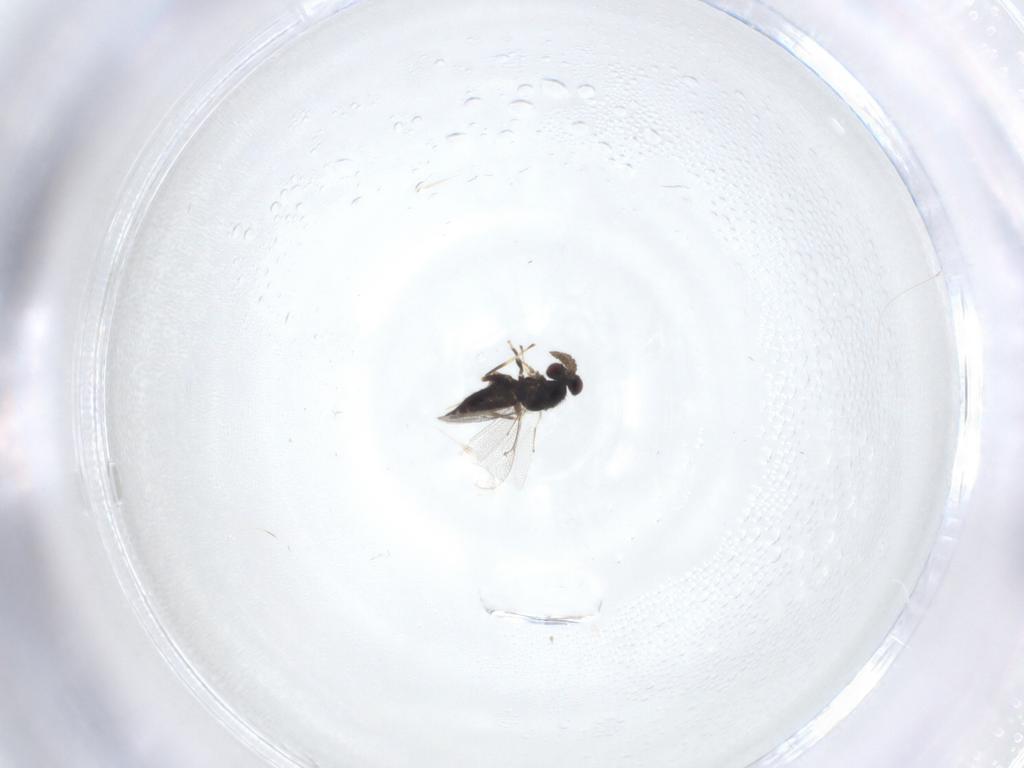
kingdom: Animalia
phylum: Arthropoda
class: Insecta
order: Hymenoptera
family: Eulophidae
